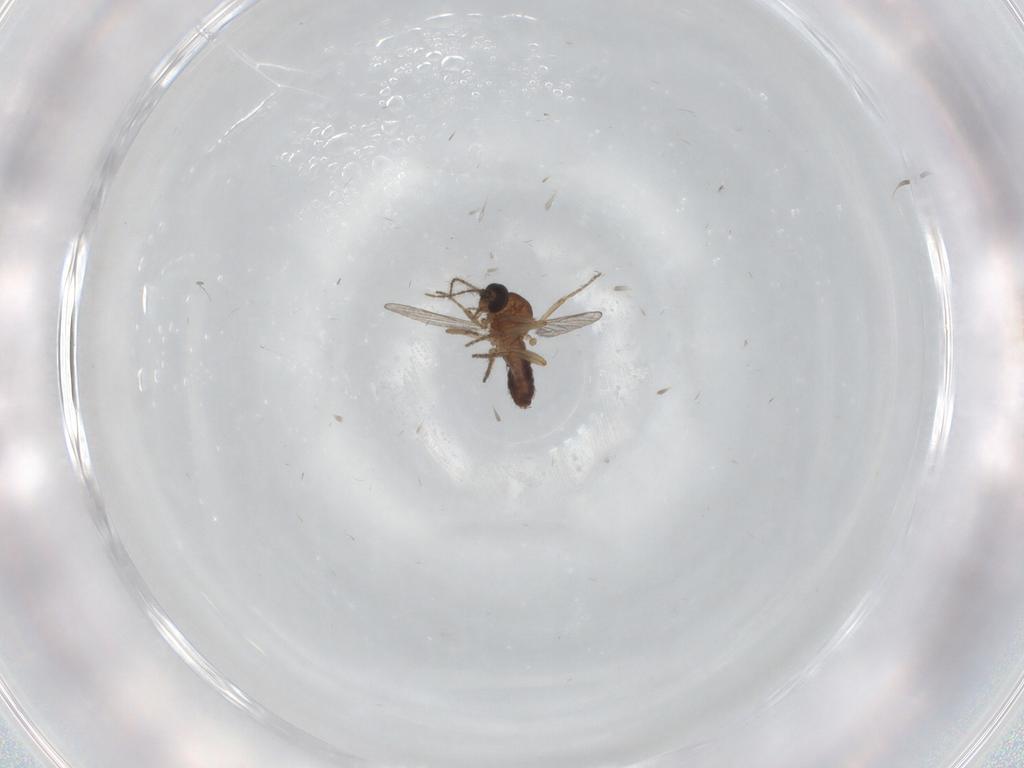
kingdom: Animalia
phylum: Arthropoda
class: Insecta
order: Diptera
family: Ceratopogonidae
